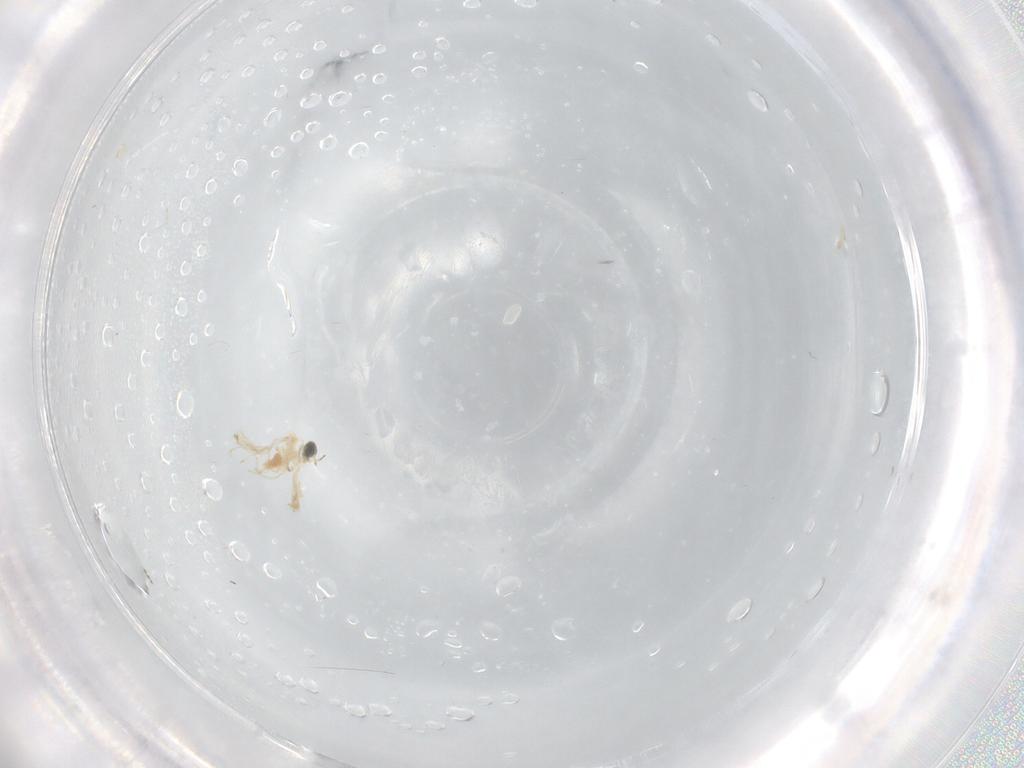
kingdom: Animalia
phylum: Arthropoda
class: Insecta
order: Diptera
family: Cecidomyiidae
